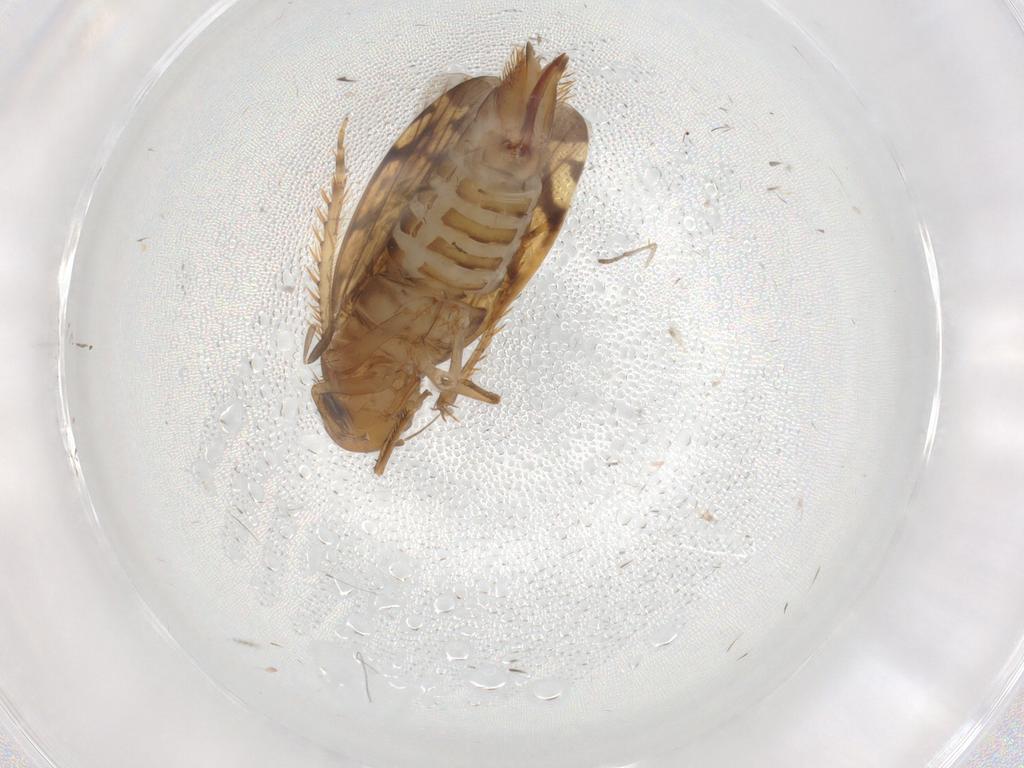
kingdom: Animalia
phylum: Arthropoda
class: Insecta
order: Hemiptera
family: Cicadellidae
